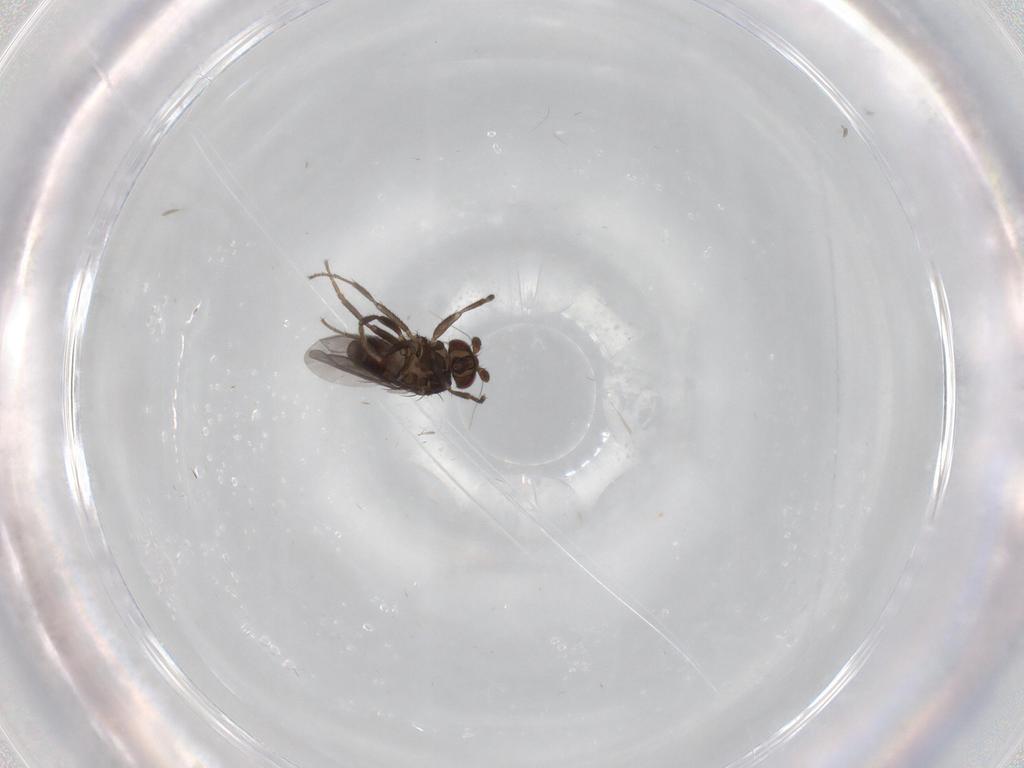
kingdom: Animalia
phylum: Arthropoda
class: Insecta
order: Diptera
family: Sphaeroceridae
